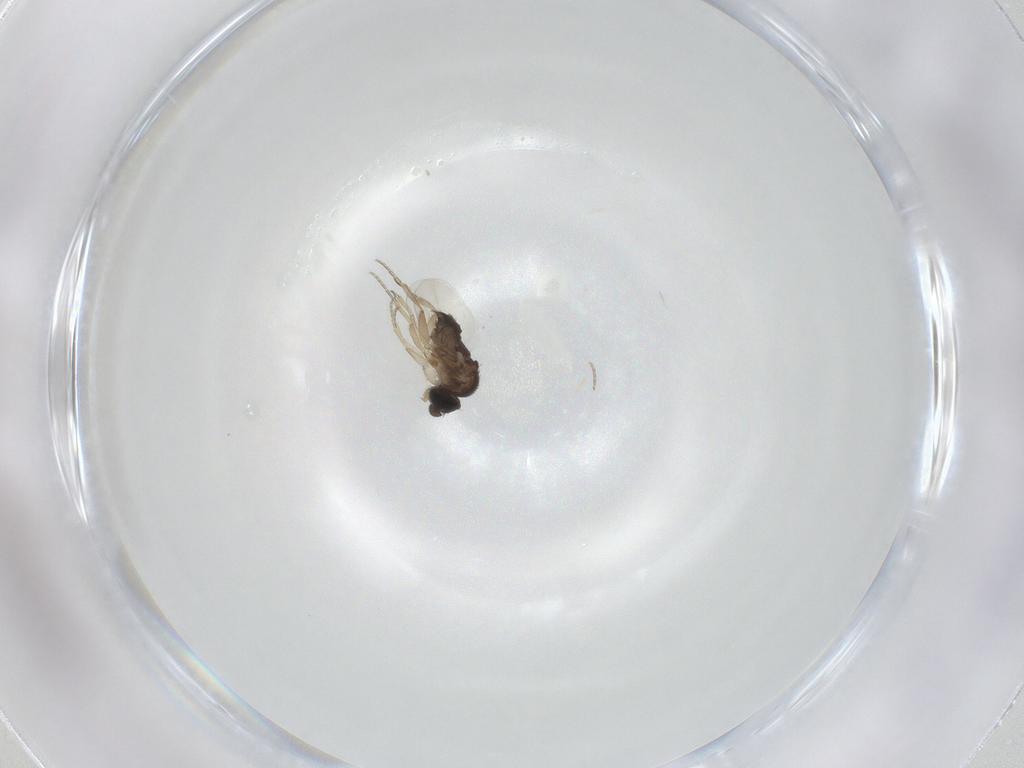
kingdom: Animalia
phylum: Arthropoda
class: Insecta
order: Diptera
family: Phoridae
